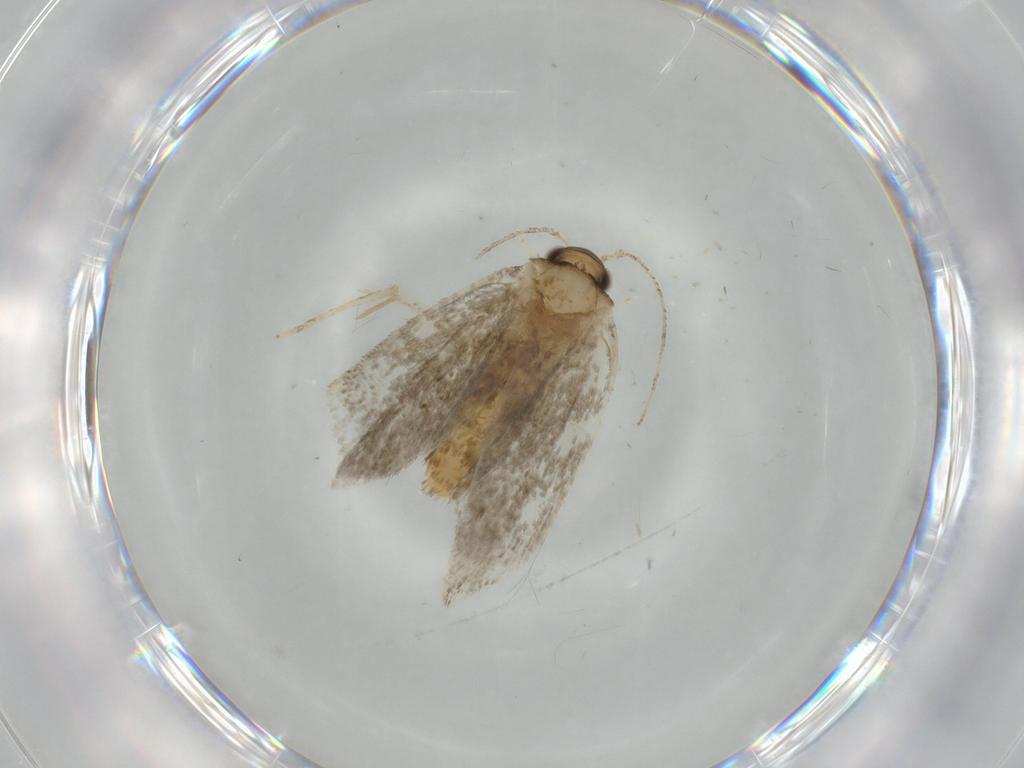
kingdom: Animalia
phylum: Arthropoda
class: Insecta
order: Lepidoptera
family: Tineidae
